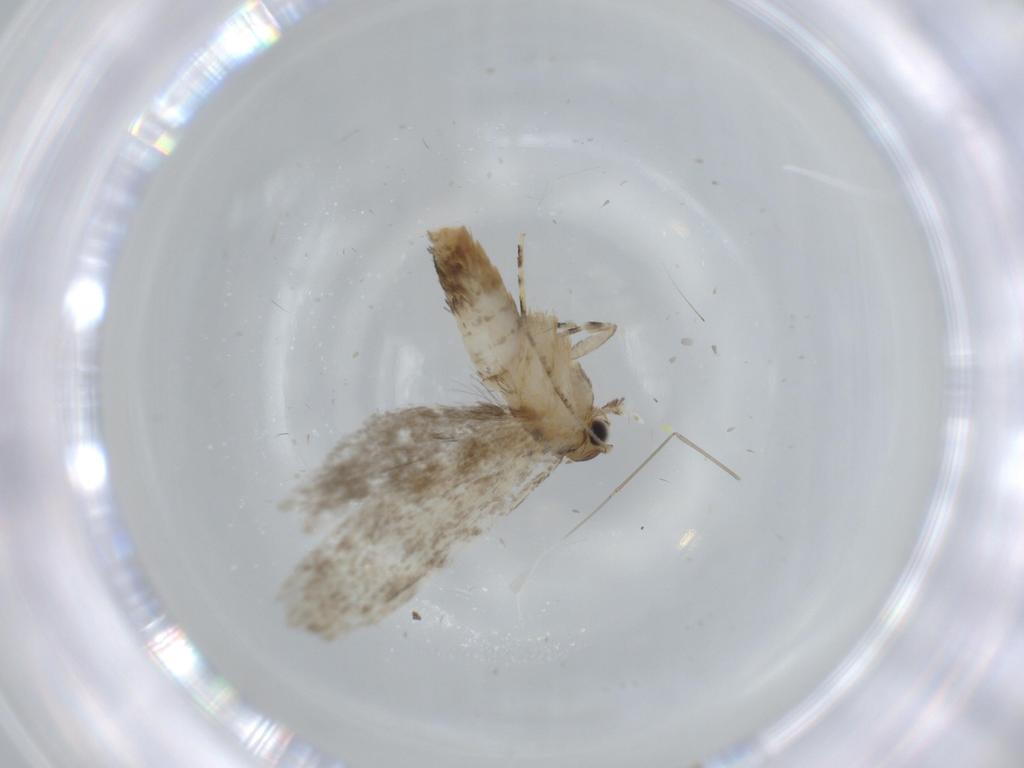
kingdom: Animalia
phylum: Arthropoda
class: Insecta
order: Lepidoptera
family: Tineidae
